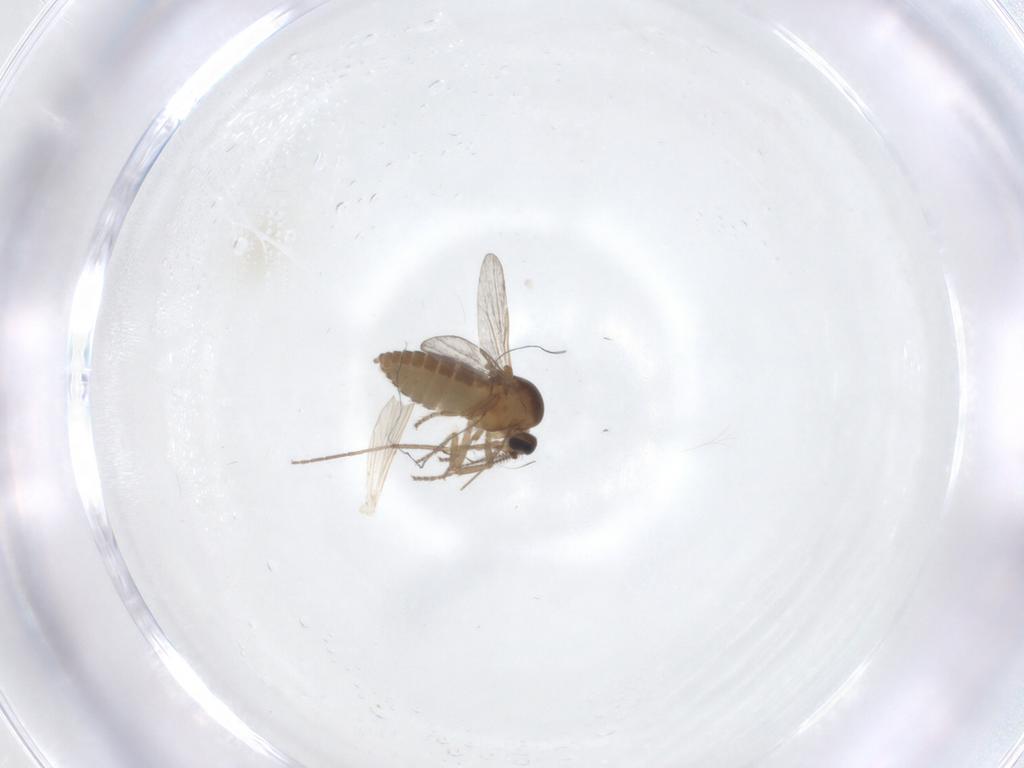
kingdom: Animalia
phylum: Arthropoda
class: Insecta
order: Diptera
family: Ceratopogonidae
